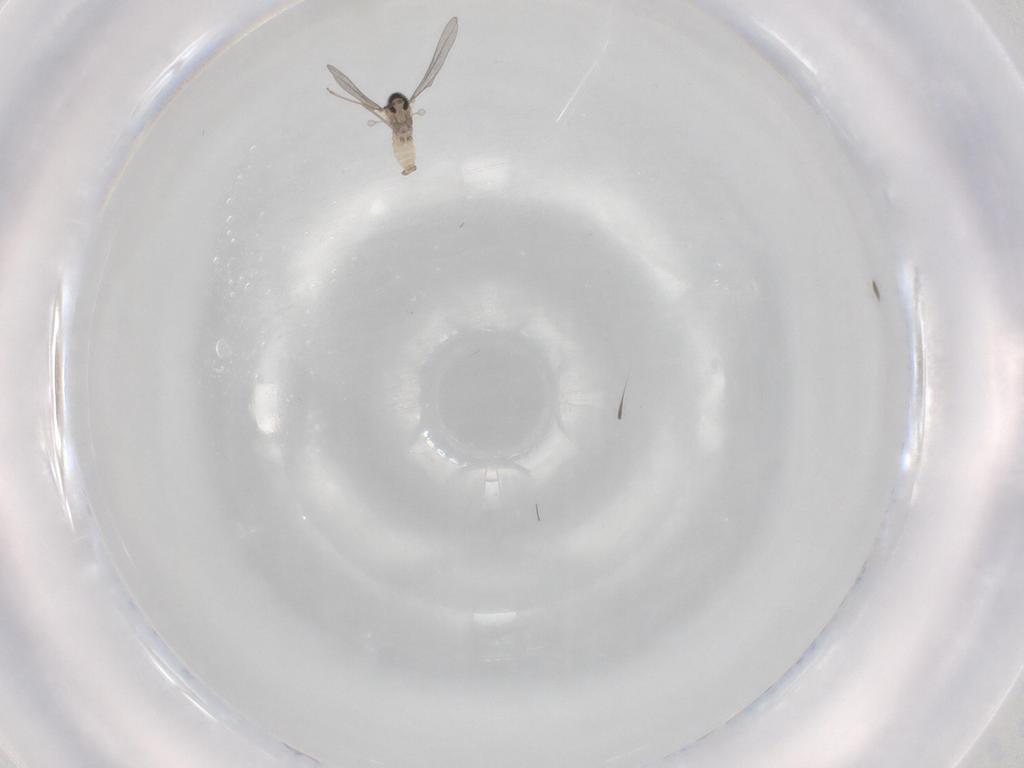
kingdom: Animalia
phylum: Arthropoda
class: Insecta
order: Diptera
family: Cecidomyiidae
